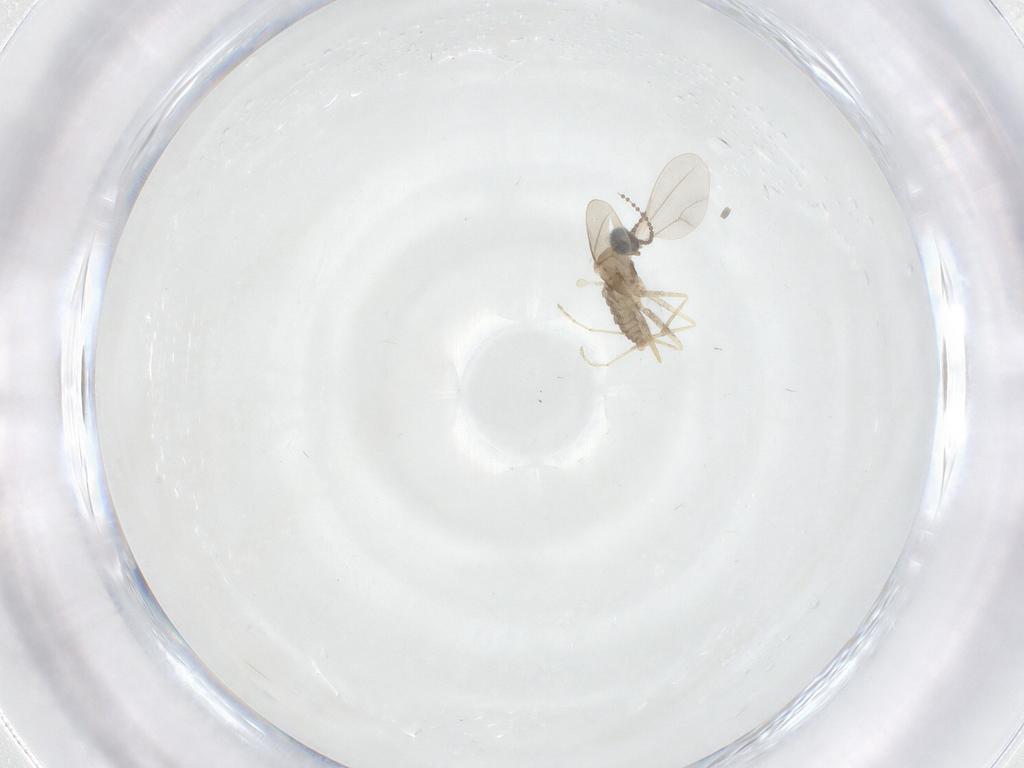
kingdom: Animalia
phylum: Arthropoda
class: Insecta
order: Diptera
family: Cecidomyiidae
